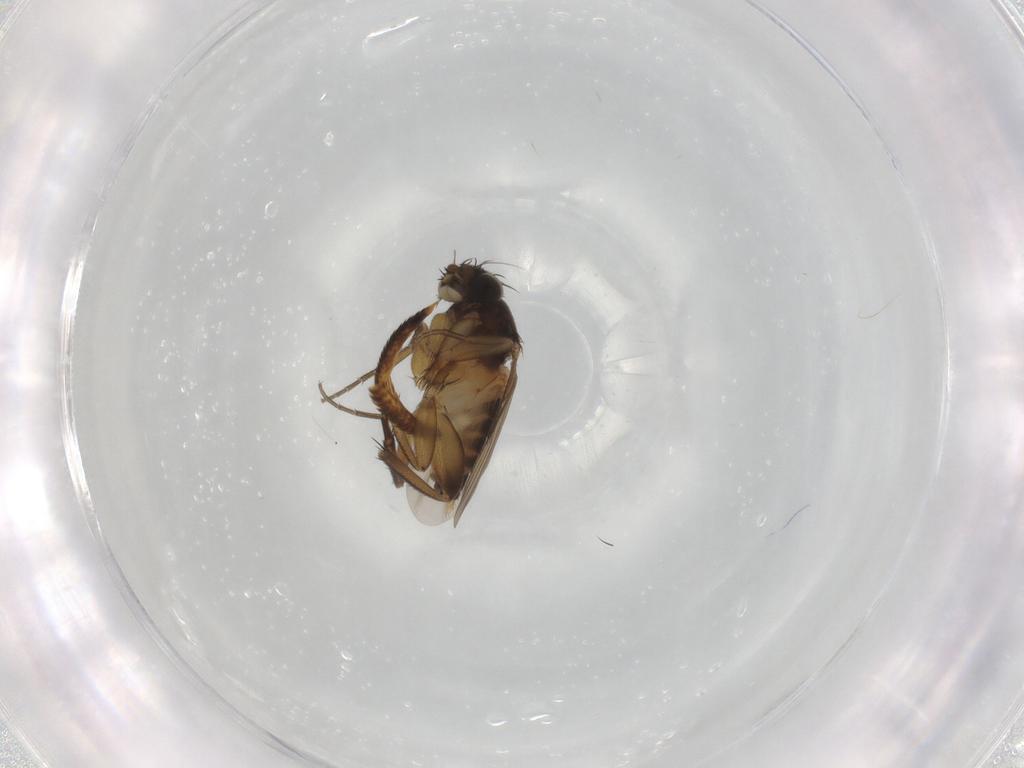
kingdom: Animalia
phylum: Arthropoda
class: Insecta
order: Diptera
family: Phoridae
